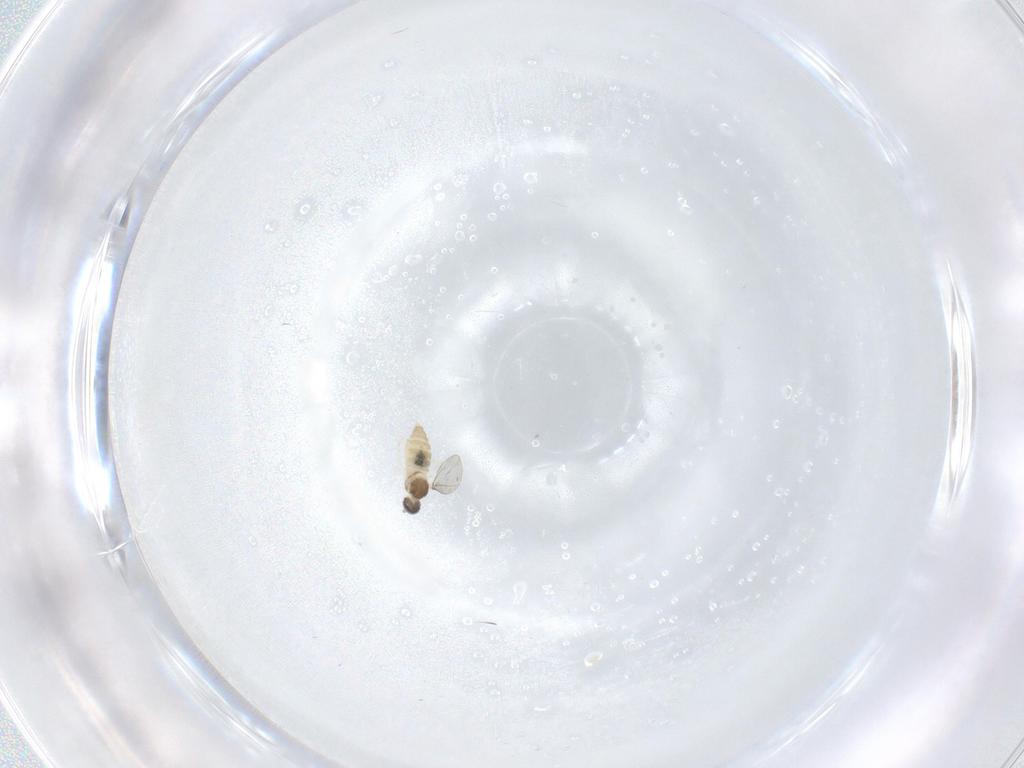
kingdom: Animalia
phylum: Arthropoda
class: Insecta
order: Diptera
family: Cecidomyiidae
